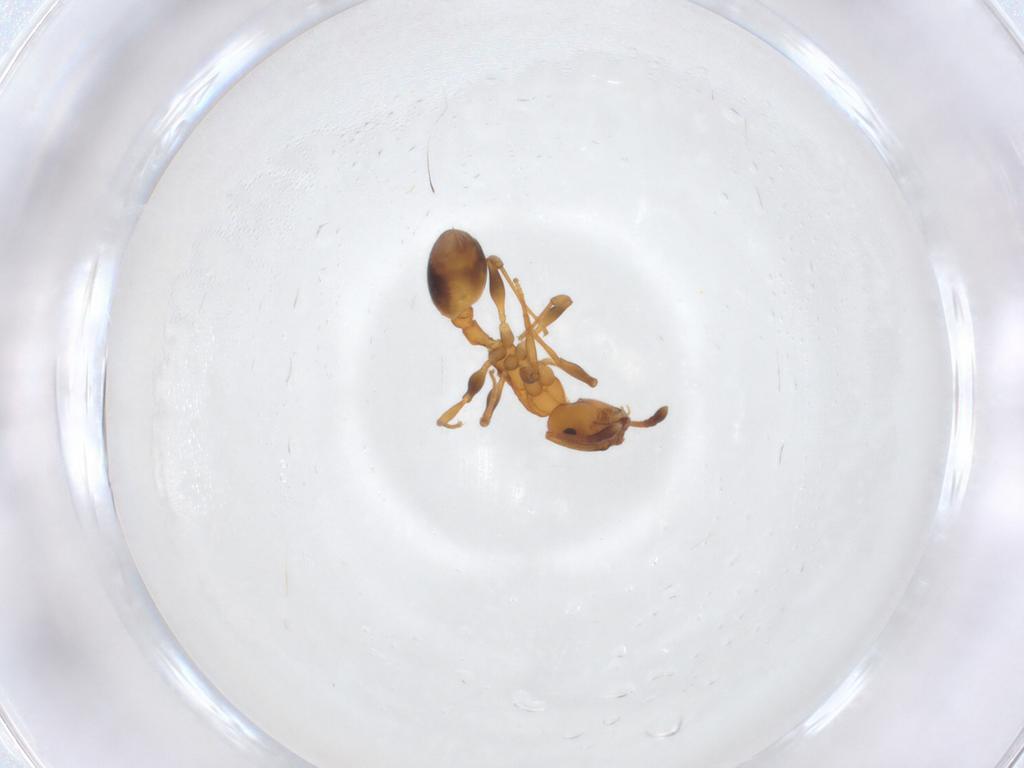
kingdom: Animalia
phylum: Arthropoda
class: Insecta
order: Hymenoptera
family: Formicidae
